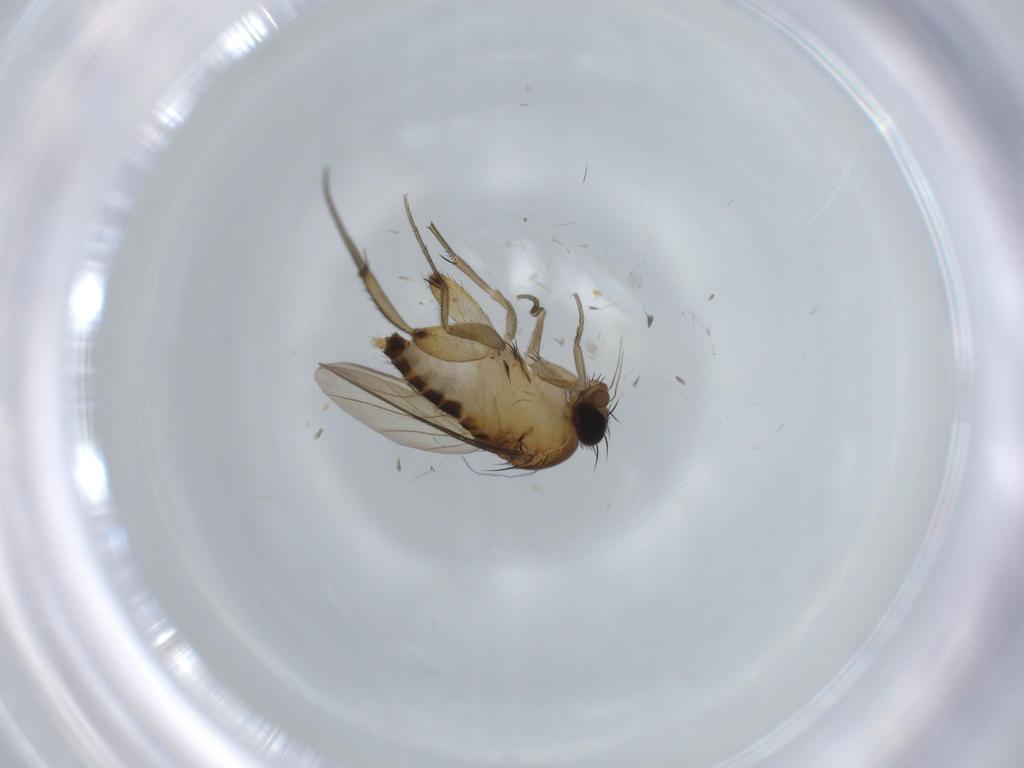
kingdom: Animalia
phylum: Arthropoda
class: Insecta
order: Diptera
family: Phoridae
